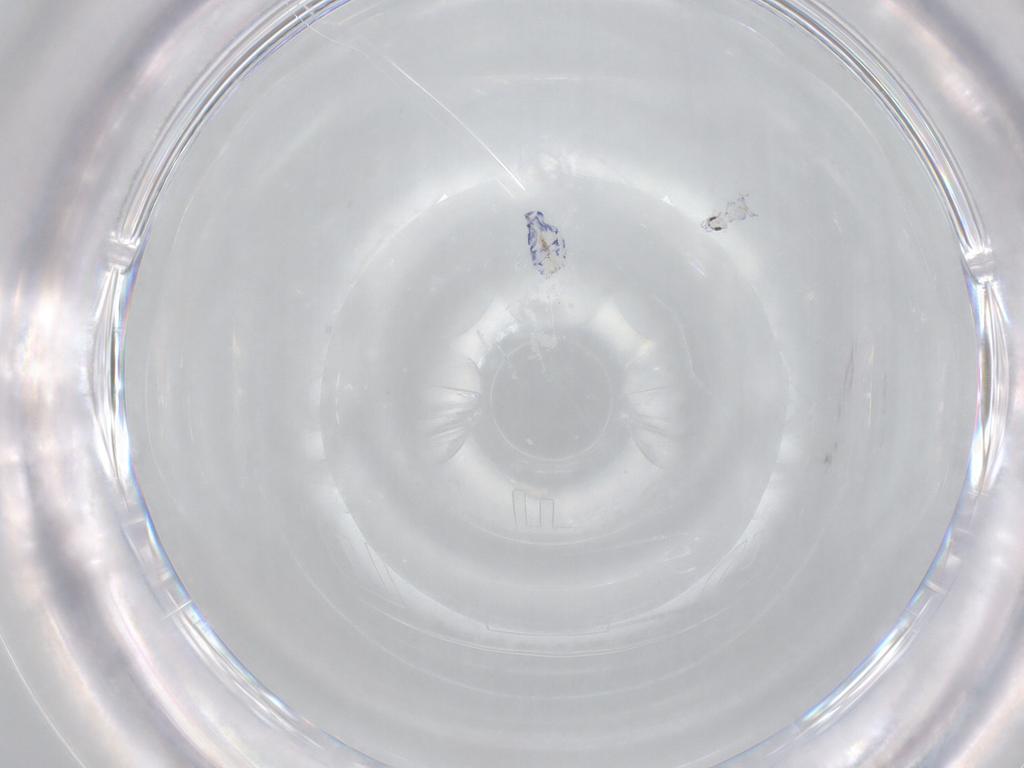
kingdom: Animalia
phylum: Arthropoda
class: Collembola
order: Entomobryomorpha
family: Entomobryidae
